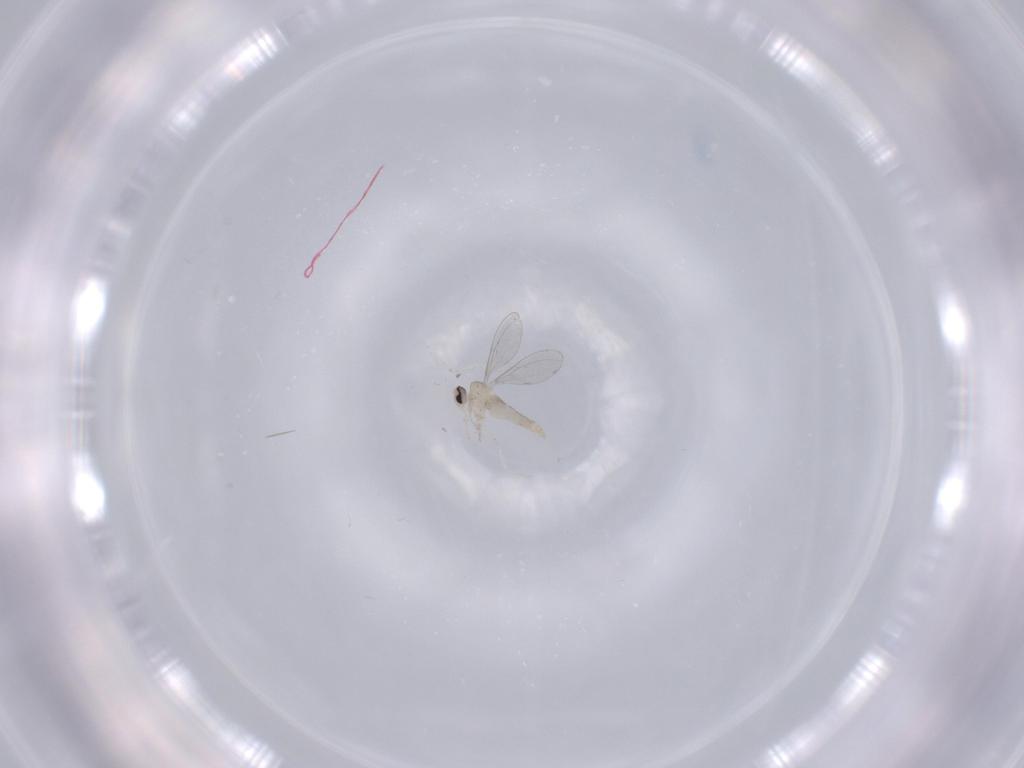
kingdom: Animalia
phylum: Arthropoda
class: Insecta
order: Diptera
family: Cecidomyiidae
